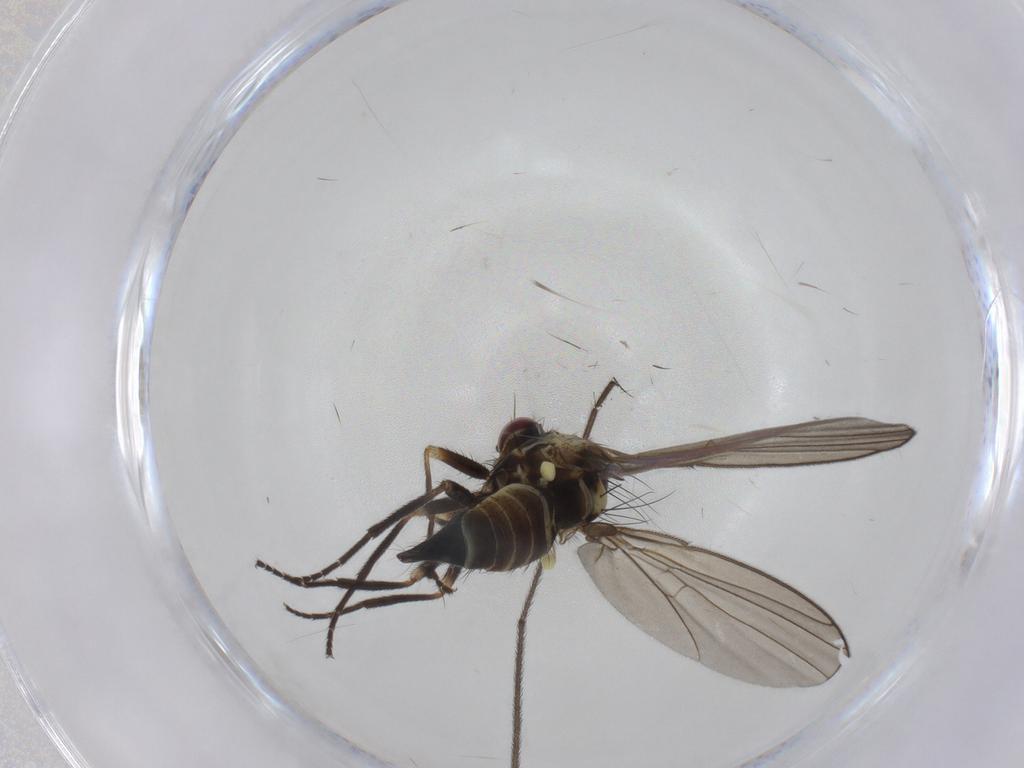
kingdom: Animalia
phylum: Arthropoda
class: Insecta
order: Diptera
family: Agromyzidae
